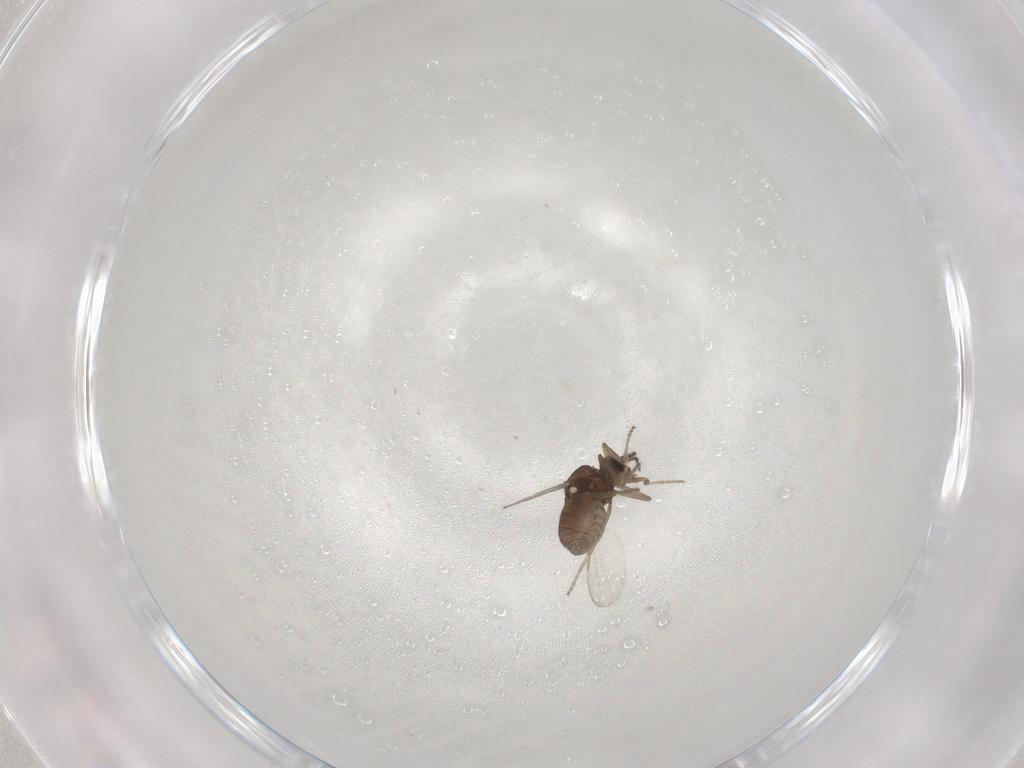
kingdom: Animalia
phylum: Arthropoda
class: Insecta
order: Diptera
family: Ceratopogonidae
